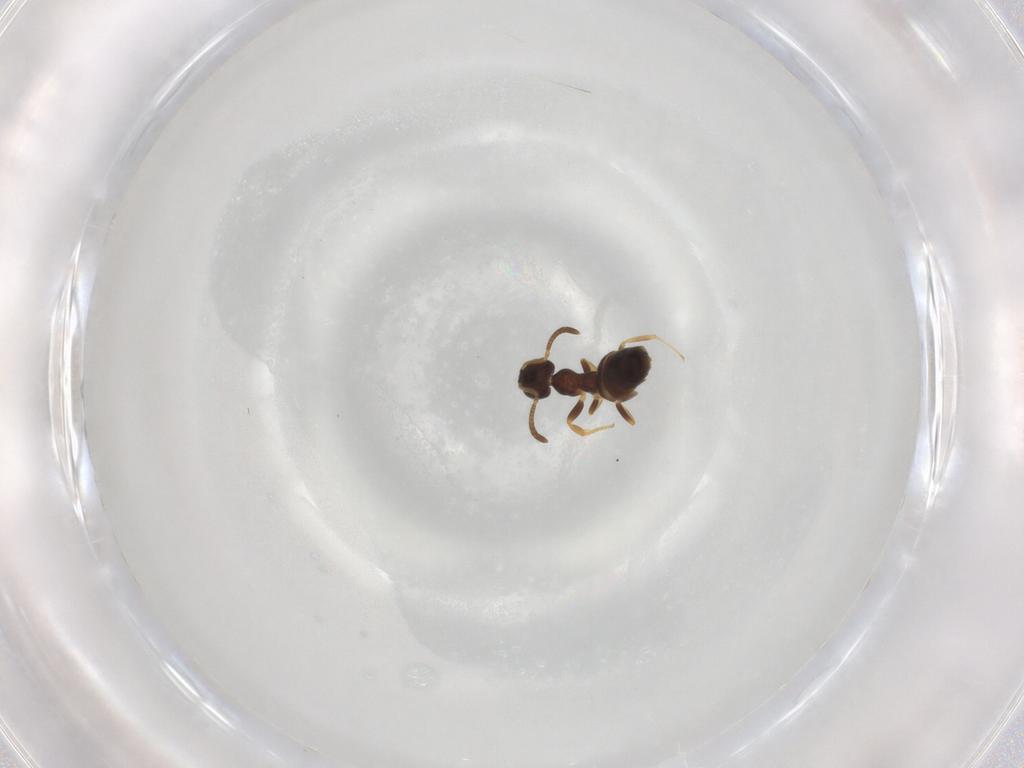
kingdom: Animalia
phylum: Arthropoda
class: Insecta
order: Hymenoptera
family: Formicidae
